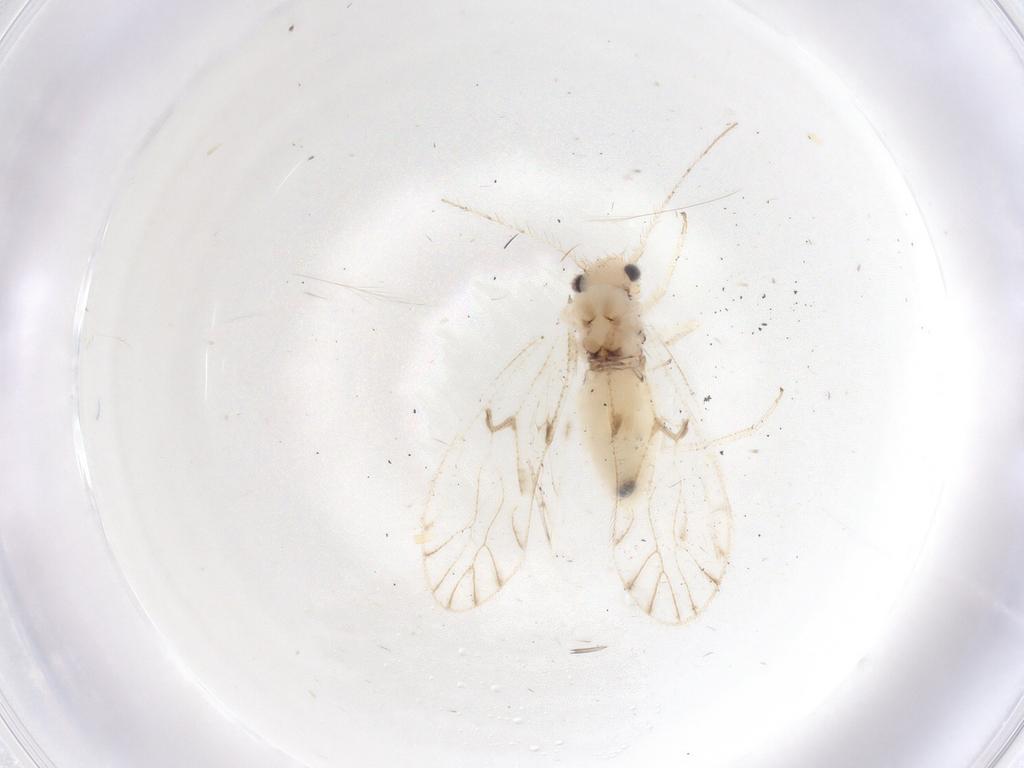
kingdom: Animalia
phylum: Arthropoda
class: Insecta
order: Psocodea
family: Trichopsocidae
